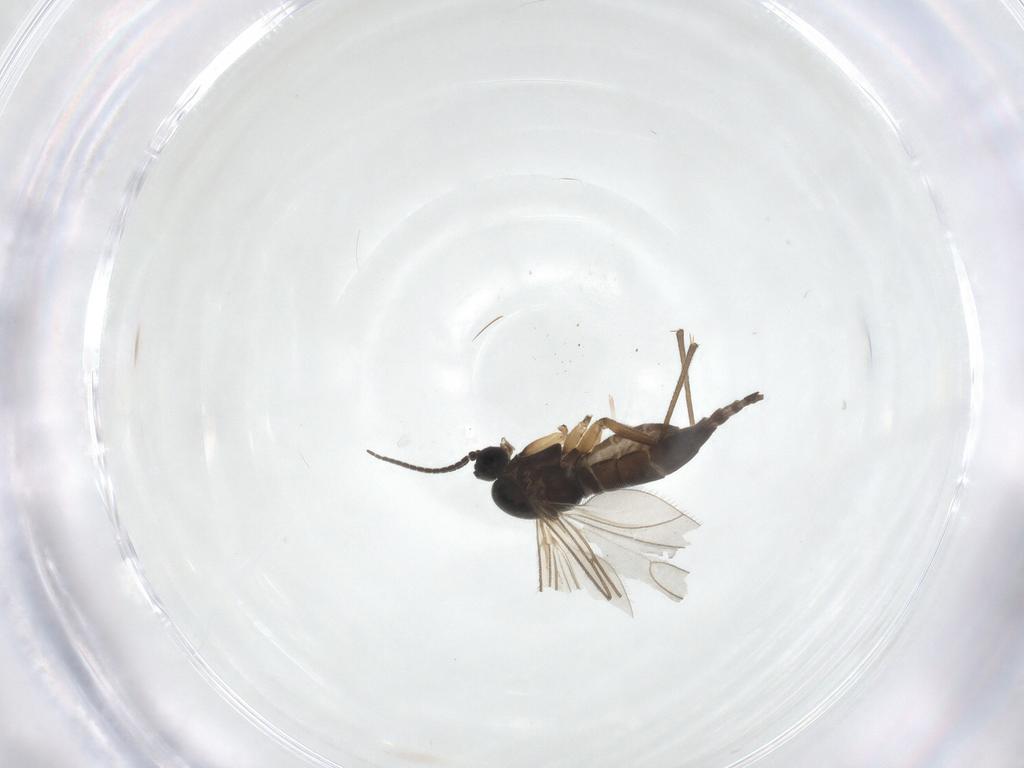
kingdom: Animalia
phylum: Arthropoda
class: Insecta
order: Diptera
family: Sciaridae
